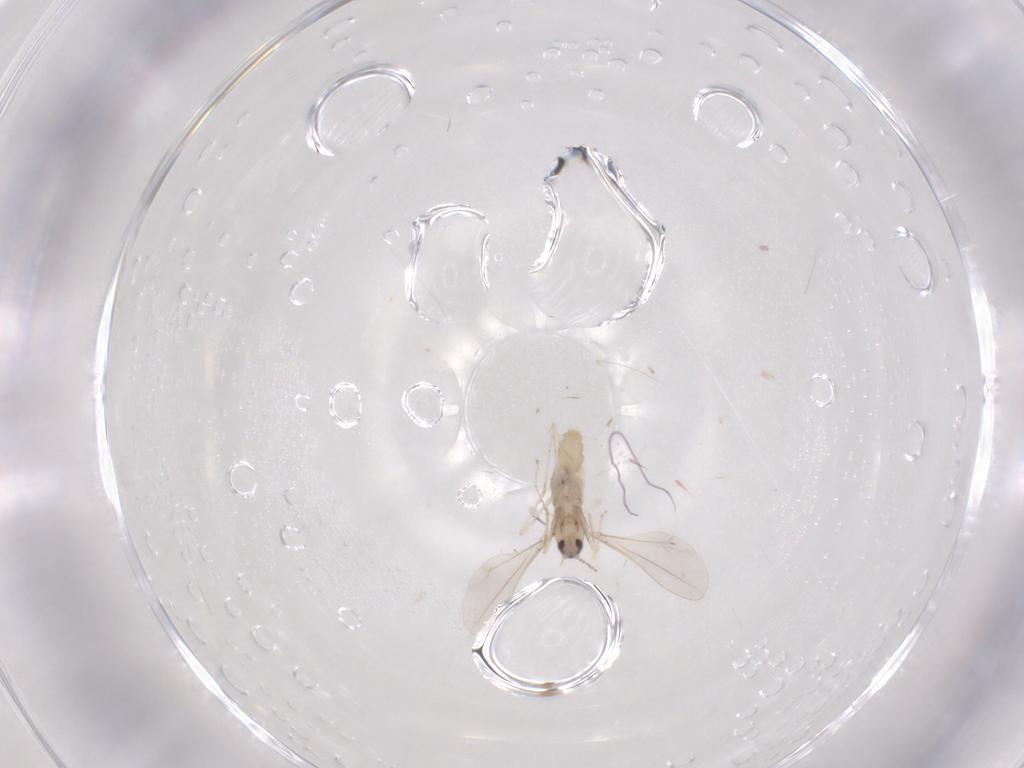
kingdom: Animalia
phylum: Arthropoda
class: Insecta
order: Diptera
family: Cecidomyiidae
